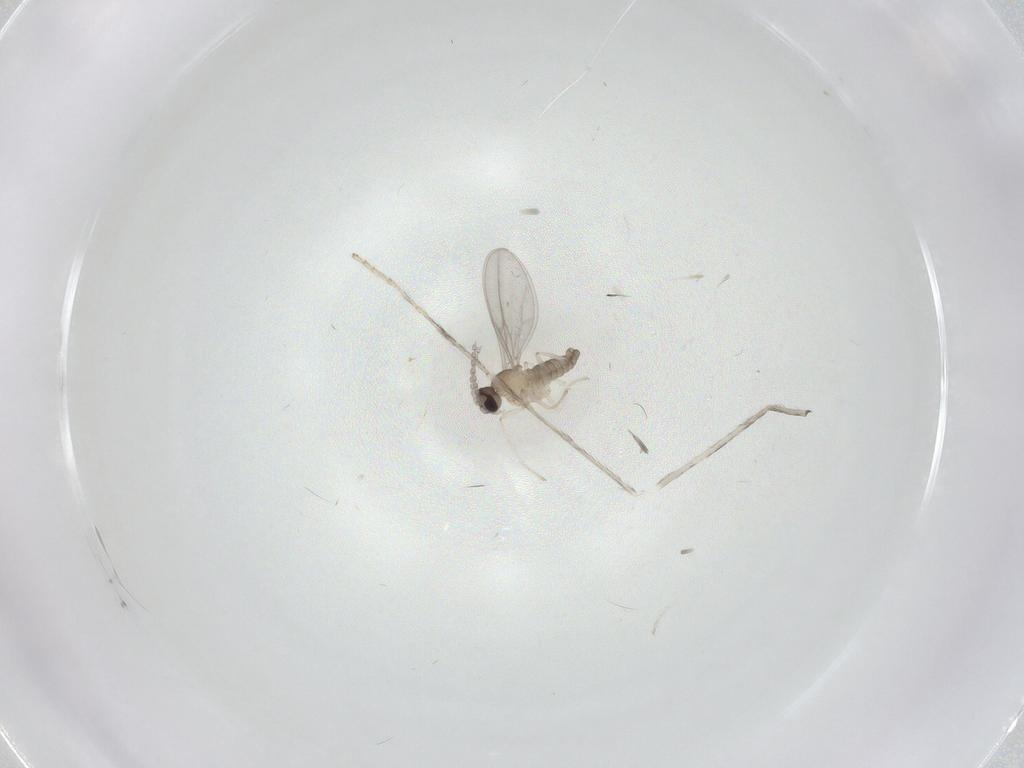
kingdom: Animalia
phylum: Arthropoda
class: Insecta
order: Diptera
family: Cecidomyiidae
